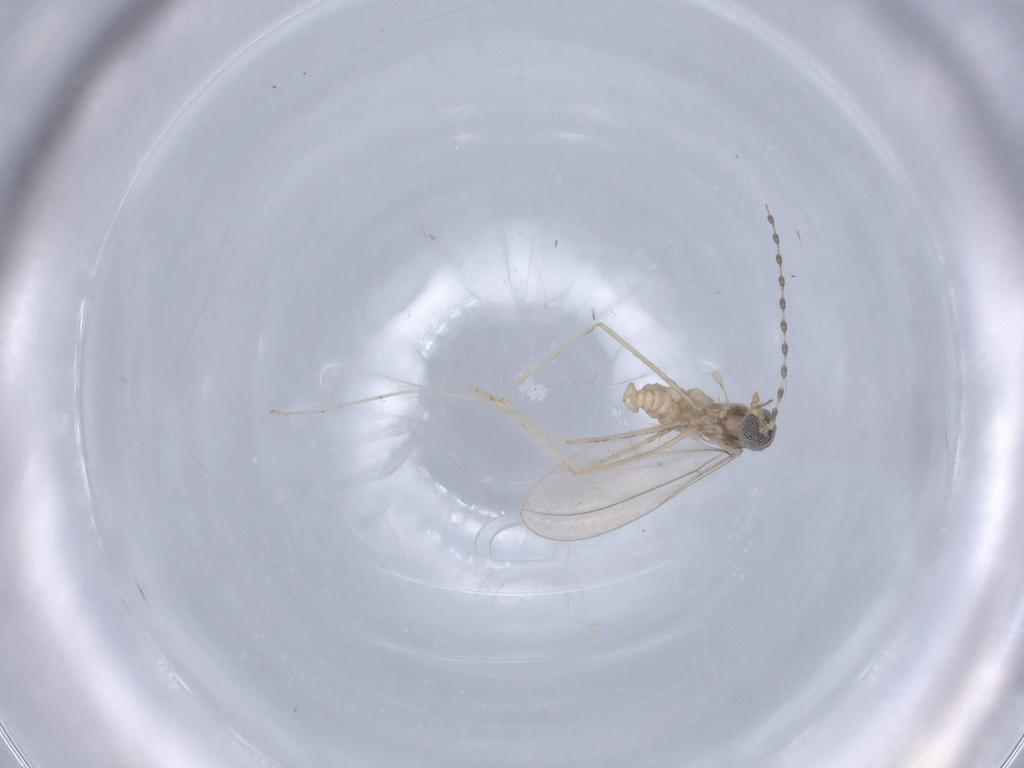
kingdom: Animalia
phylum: Arthropoda
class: Insecta
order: Diptera
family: Cecidomyiidae
